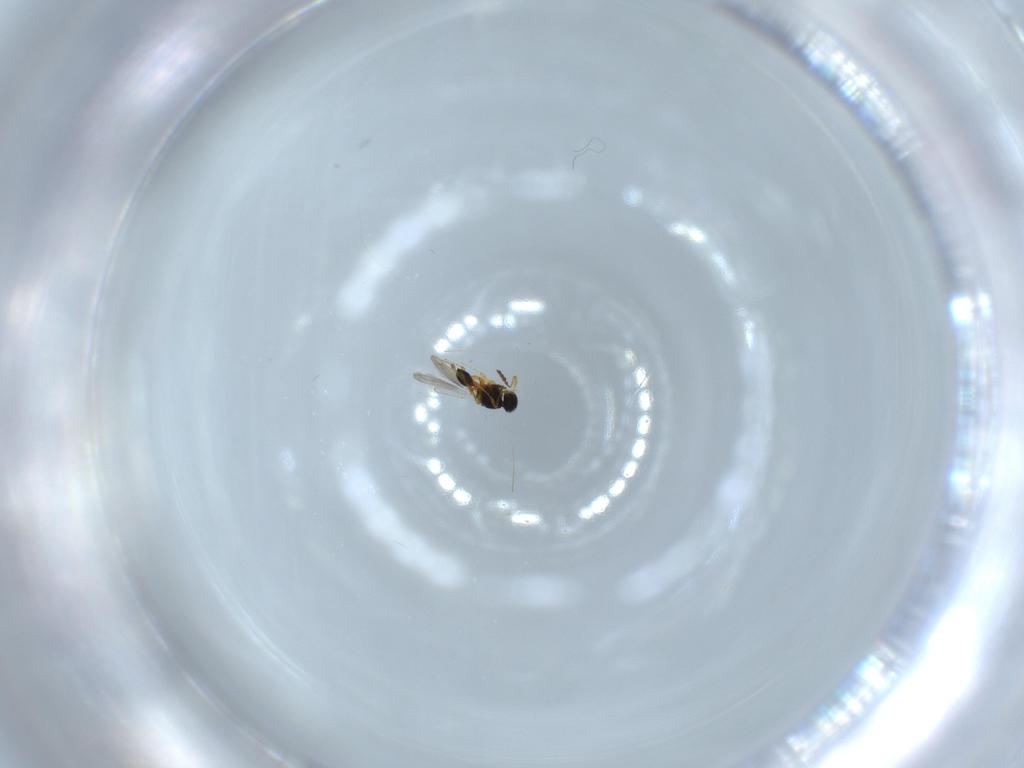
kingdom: Animalia
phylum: Arthropoda
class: Insecta
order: Hymenoptera
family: Platygastridae
